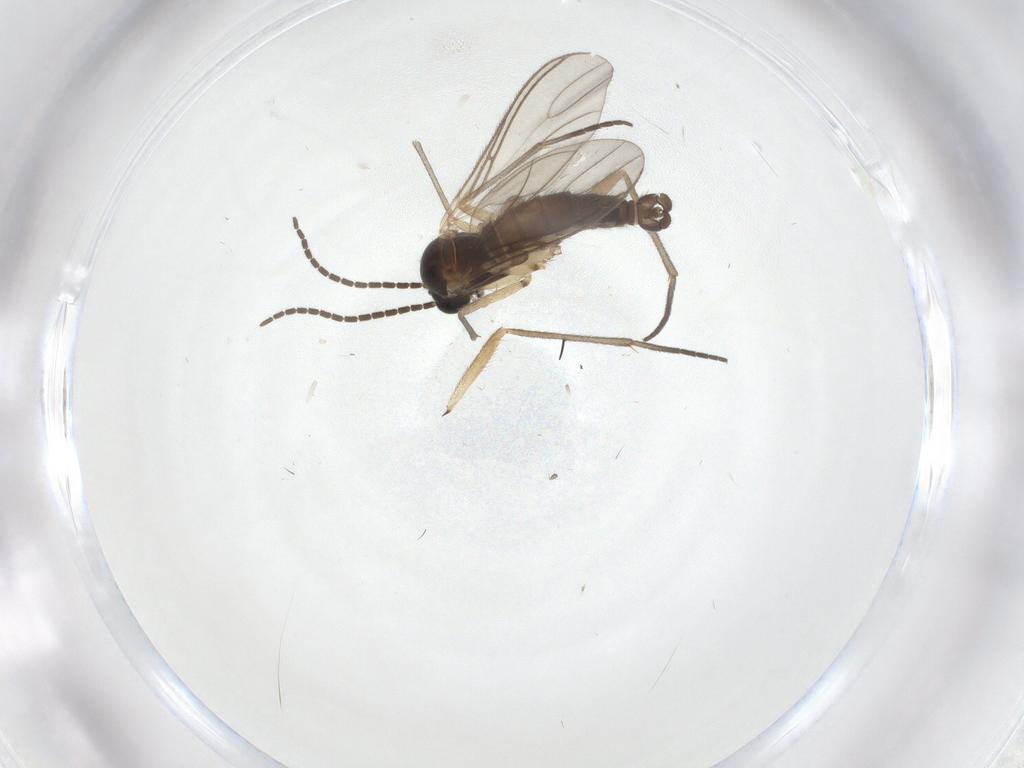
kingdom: Animalia
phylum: Arthropoda
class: Insecta
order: Diptera
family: Sciaridae
